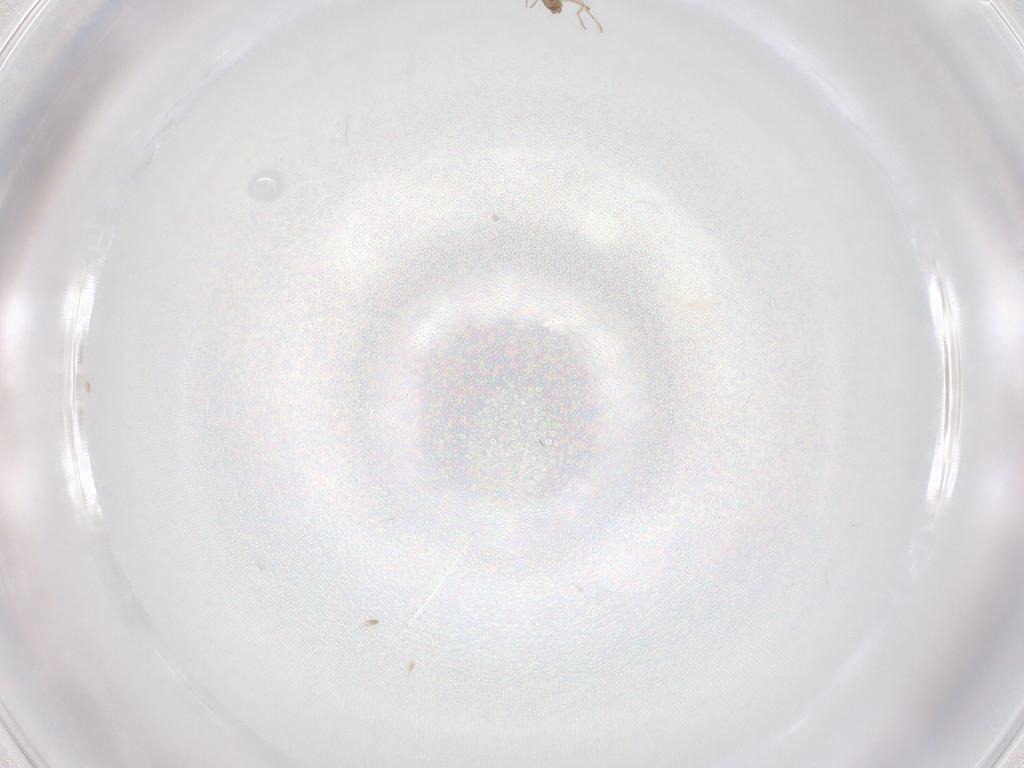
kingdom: Animalia
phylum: Arthropoda
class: Insecta
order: Diptera
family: Cecidomyiidae
